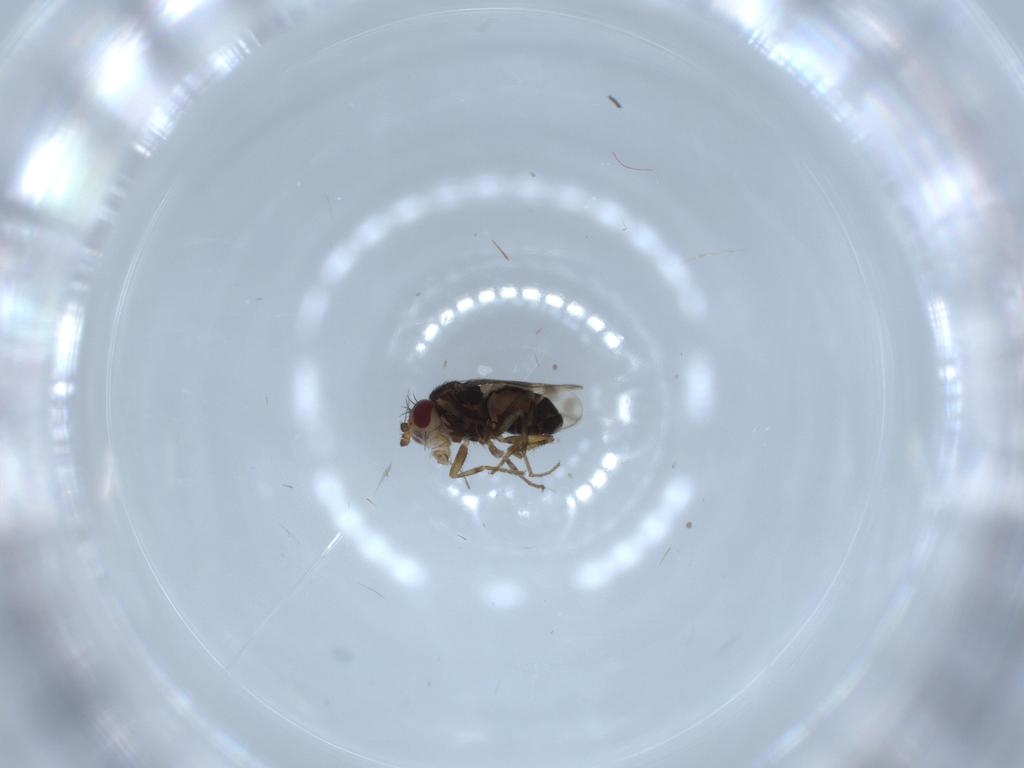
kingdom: Animalia
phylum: Arthropoda
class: Insecta
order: Diptera
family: Sphaeroceridae
